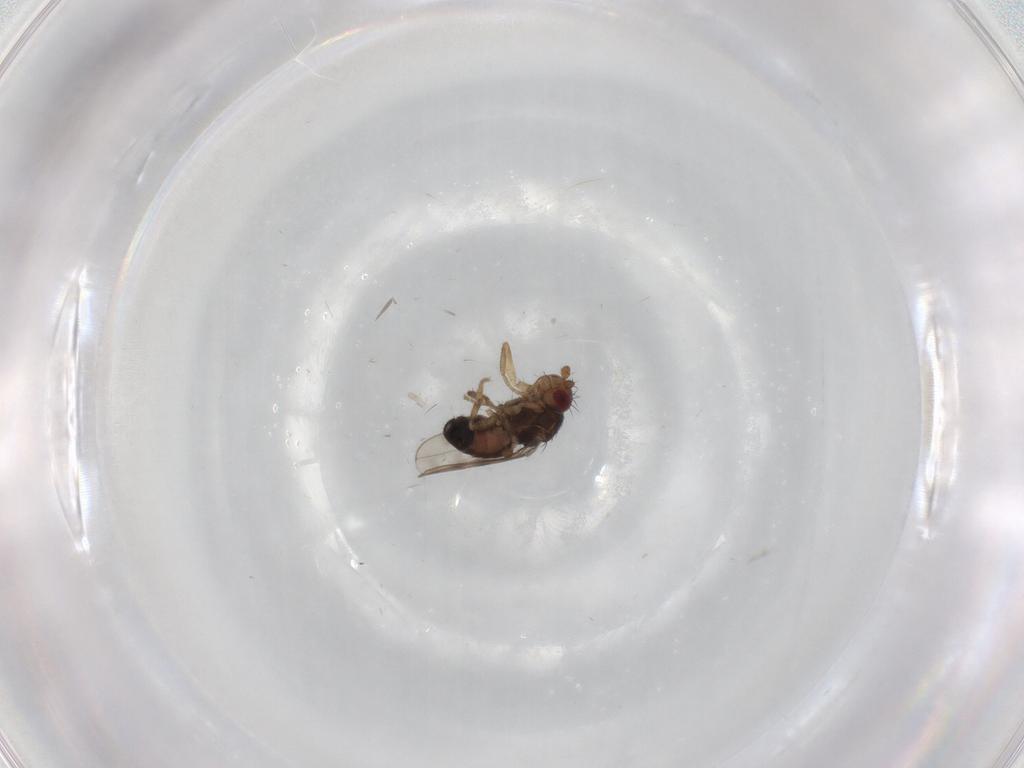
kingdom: Animalia
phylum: Arthropoda
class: Insecta
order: Diptera
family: Sphaeroceridae
